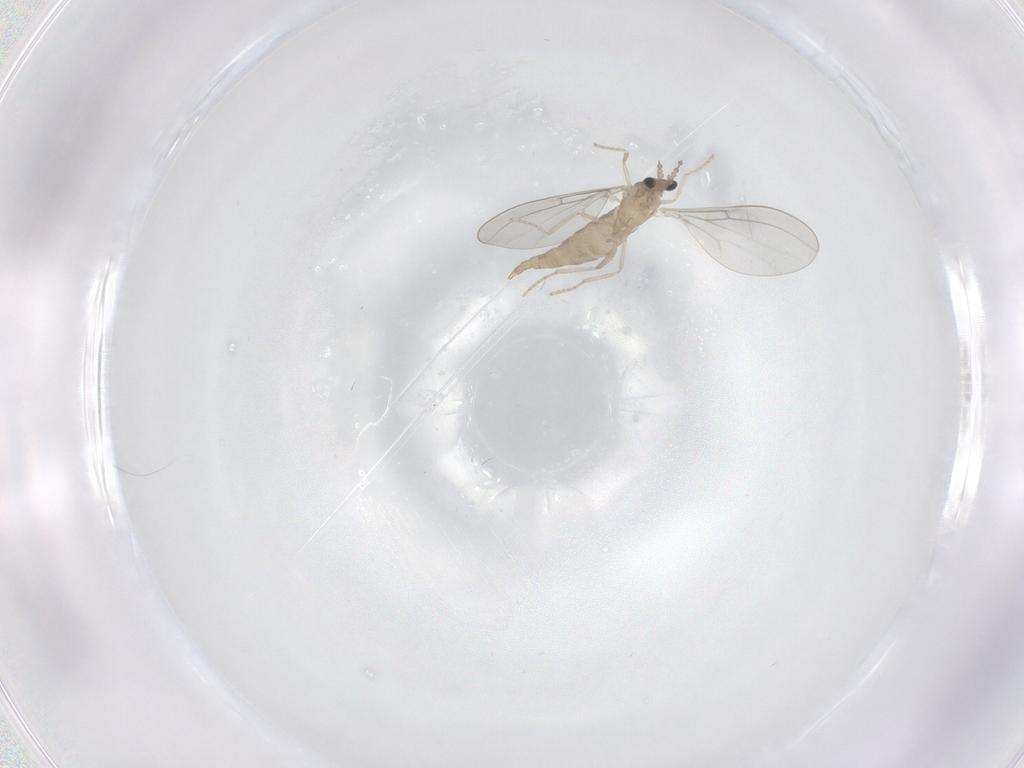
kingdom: Animalia
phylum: Arthropoda
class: Insecta
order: Diptera
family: Cecidomyiidae
